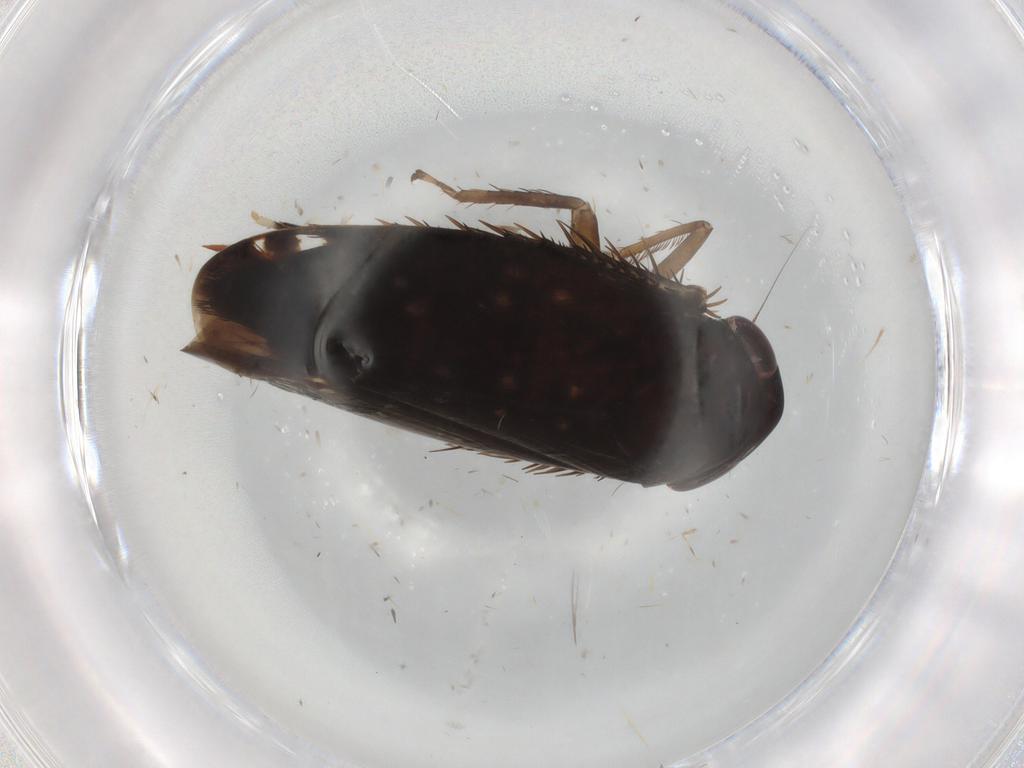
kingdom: Animalia
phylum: Arthropoda
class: Insecta
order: Hemiptera
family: Cicadellidae
